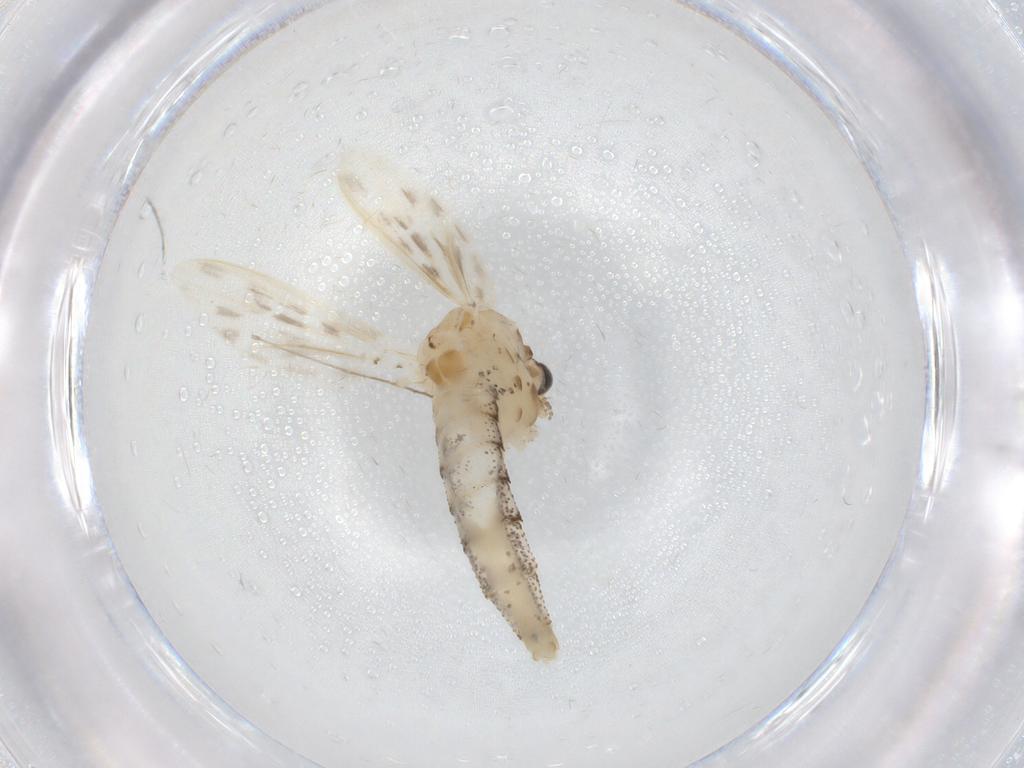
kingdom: Animalia
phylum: Arthropoda
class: Insecta
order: Diptera
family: Chaoboridae
